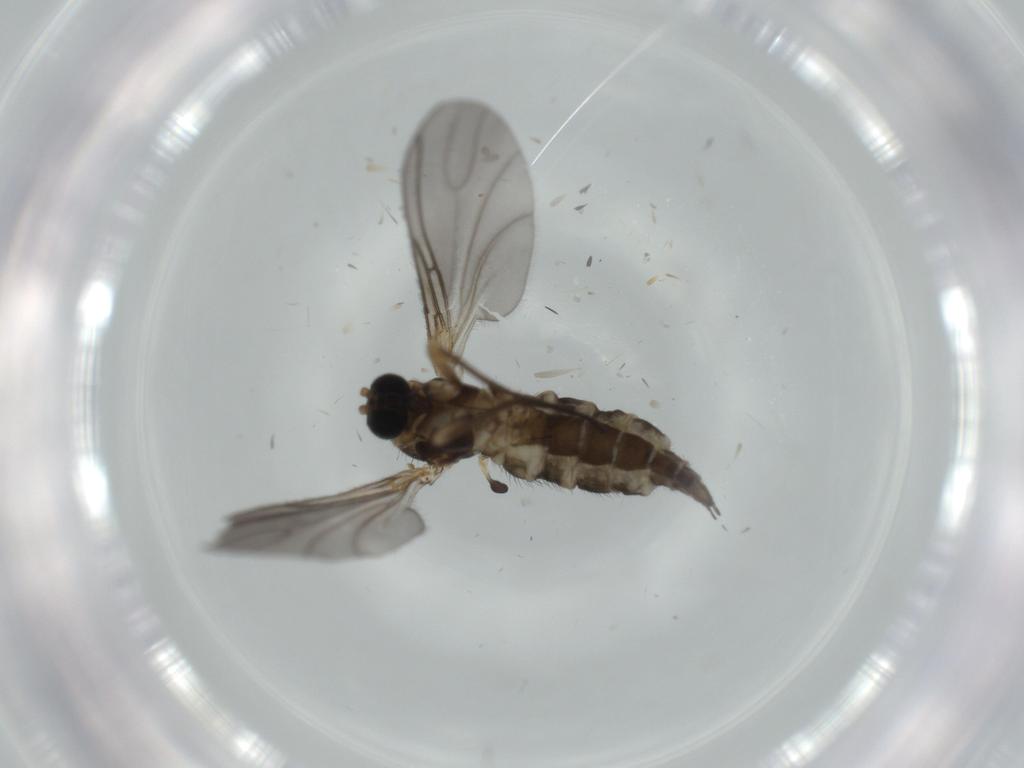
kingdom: Animalia
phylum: Arthropoda
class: Insecta
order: Diptera
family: Sciaridae
